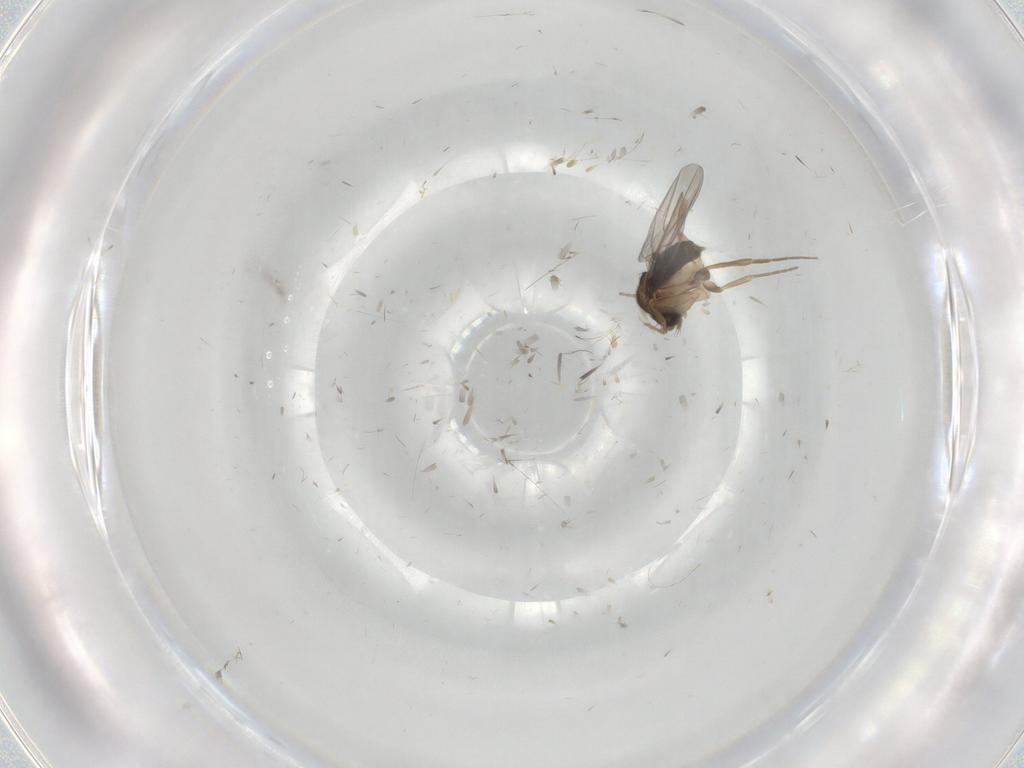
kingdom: Animalia
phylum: Arthropoda
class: Insecta
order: Diptera
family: Phoridae
